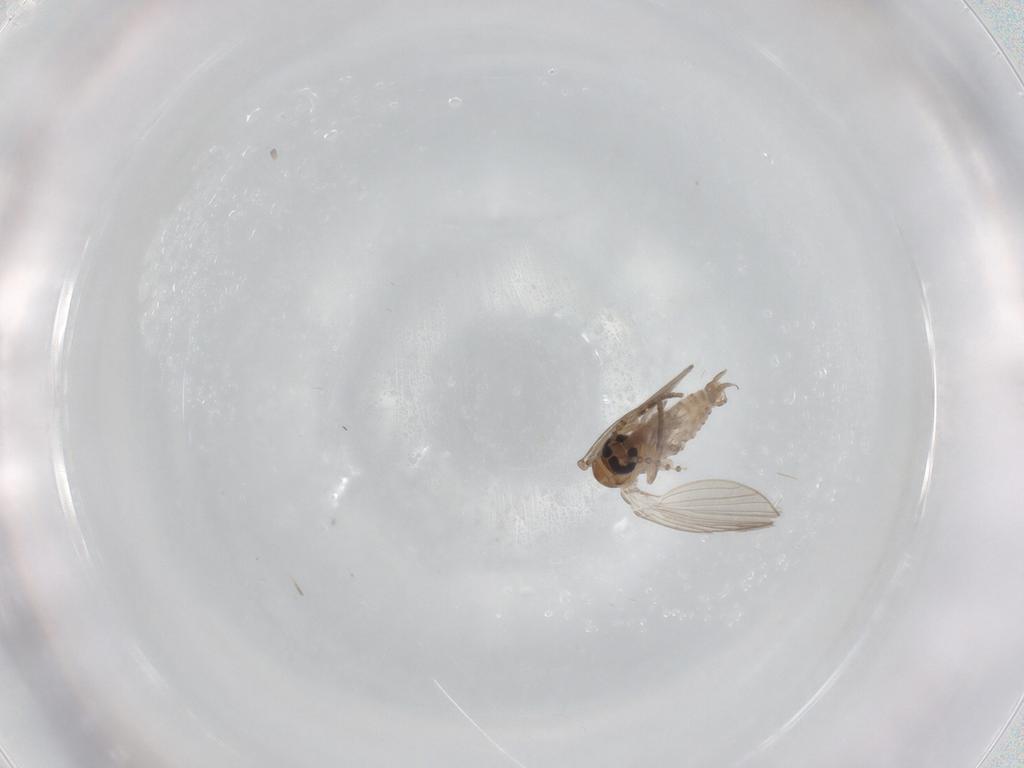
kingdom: Animalia
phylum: Arthropoda
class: Insecta
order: Diptera
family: Psychodidae
